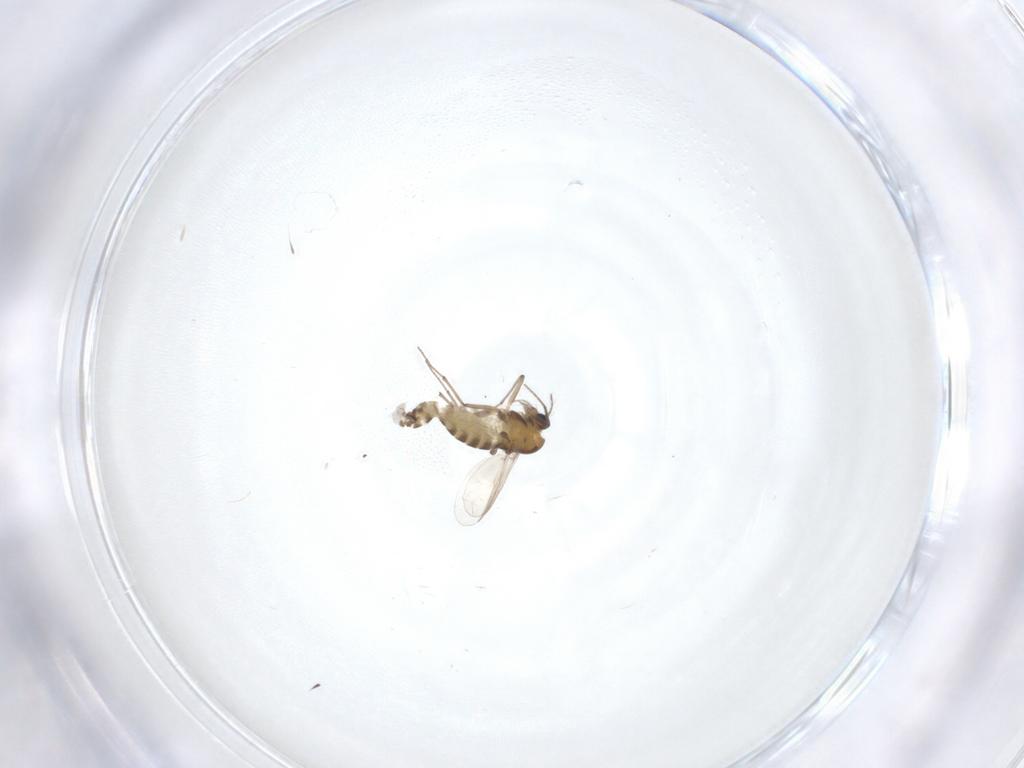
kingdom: Animalia
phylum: Arthropoda
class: Insecta
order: Diptera
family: Chironomidae
